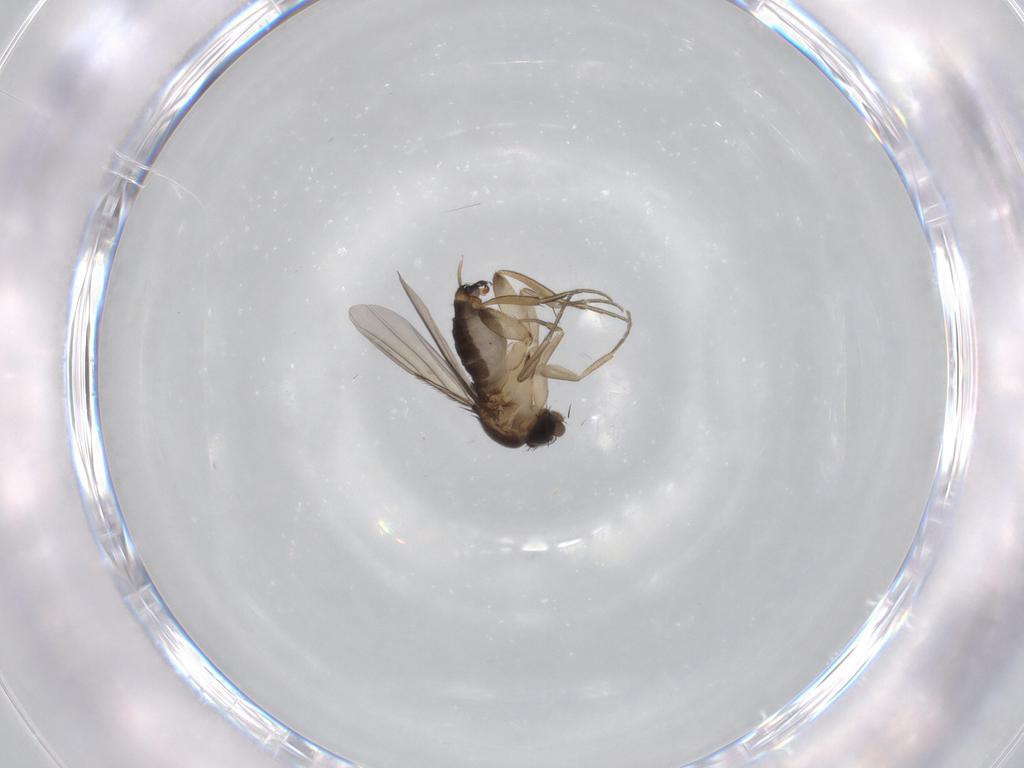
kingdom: Animalia
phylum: Arthropoda
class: Insecta
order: Diptera
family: Phoridae
